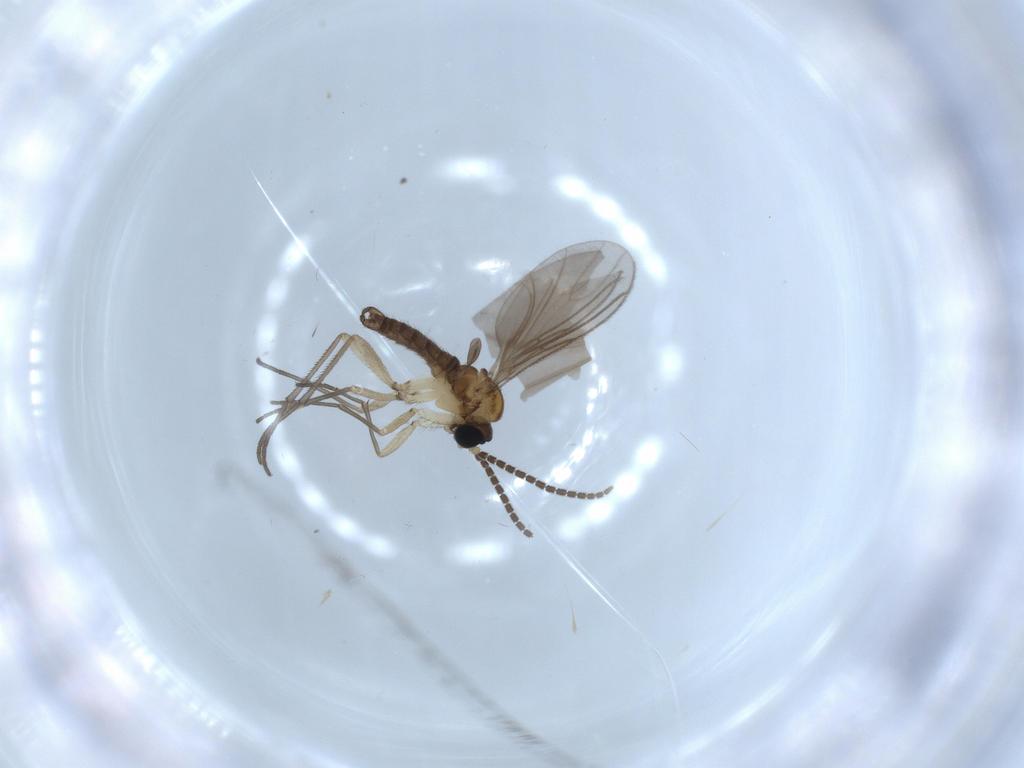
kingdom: Animalia
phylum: Arthropoda
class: Insecta
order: Diptera
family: Sciaridae
